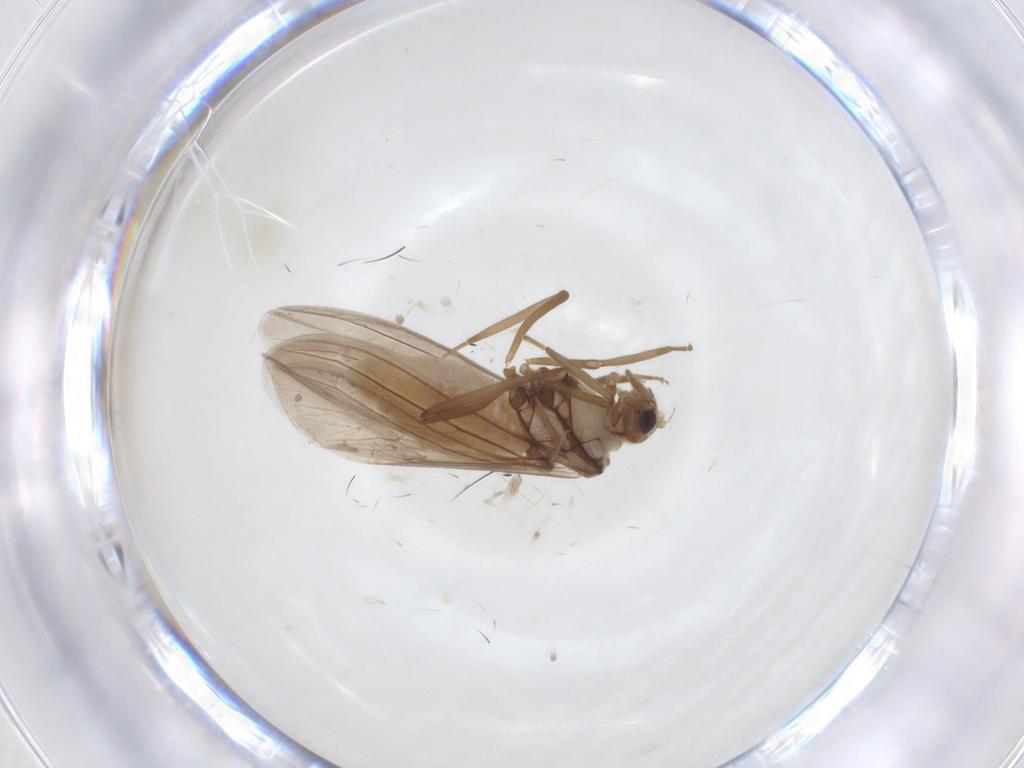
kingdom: Animalia
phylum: Arthropoda
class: Insecta
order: Neuroptera
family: Coniopterygidae
